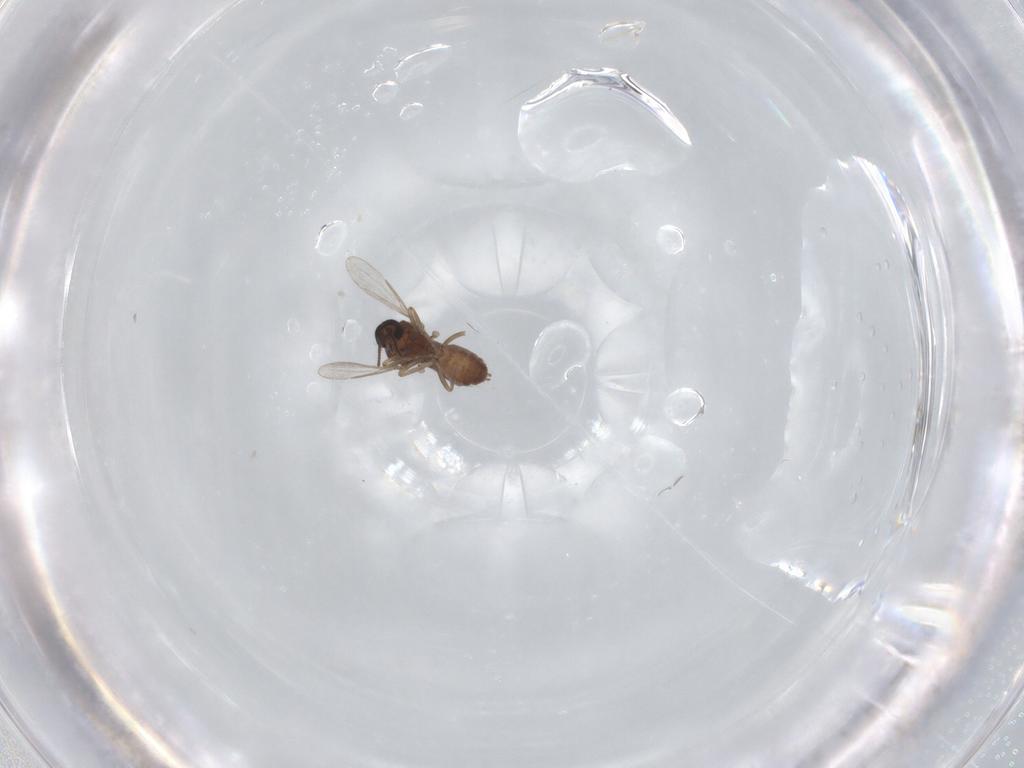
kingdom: Animalia
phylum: Arthropoda
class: Insecta
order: Diptera
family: Ceratopogonidae
